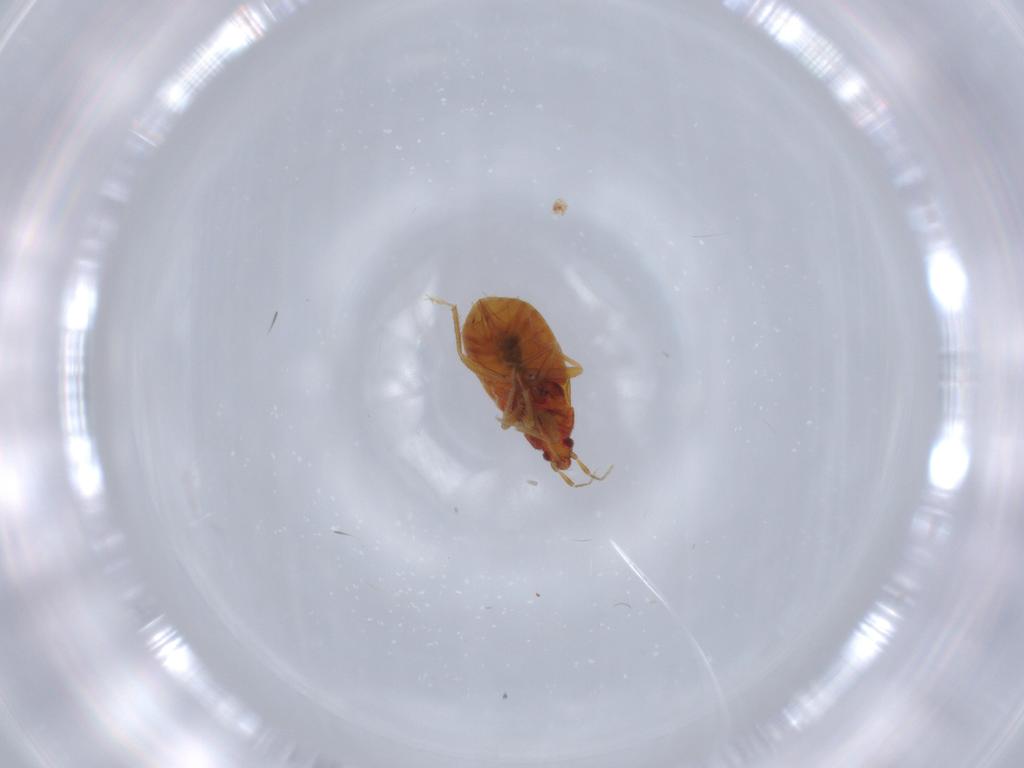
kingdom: Animalia
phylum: Arthropoda
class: Insecta
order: Hemiptera
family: Lasiochilidae
